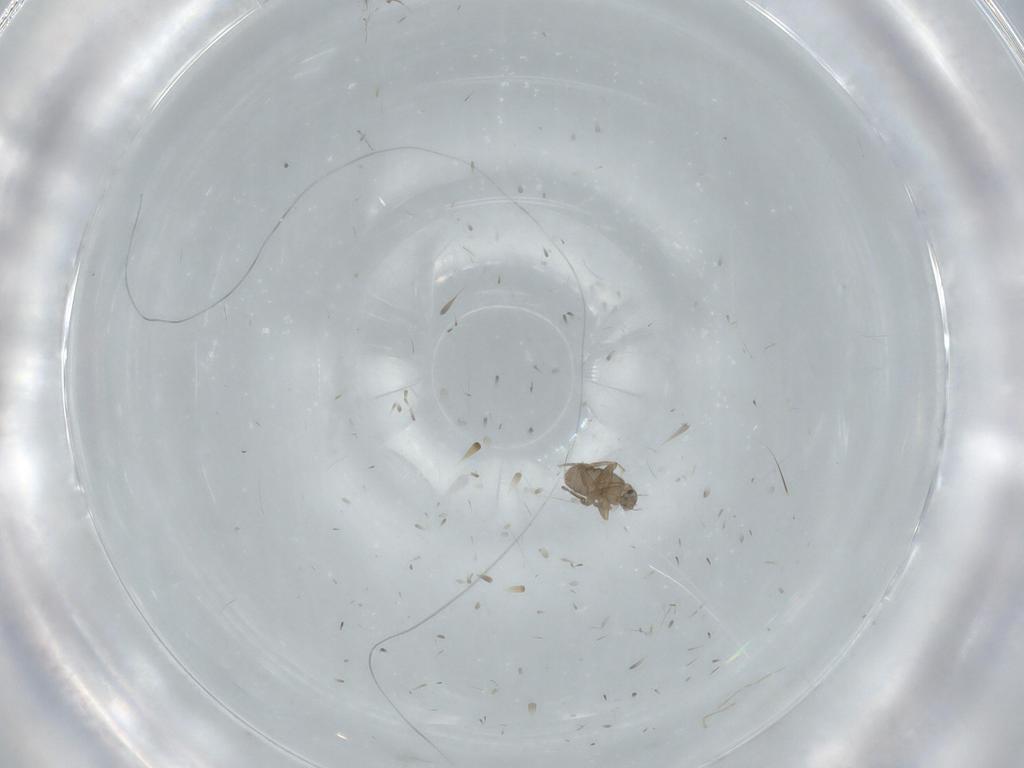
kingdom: Animalia
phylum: Arthropoda
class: Insecta
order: Diptera
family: Phoridae
